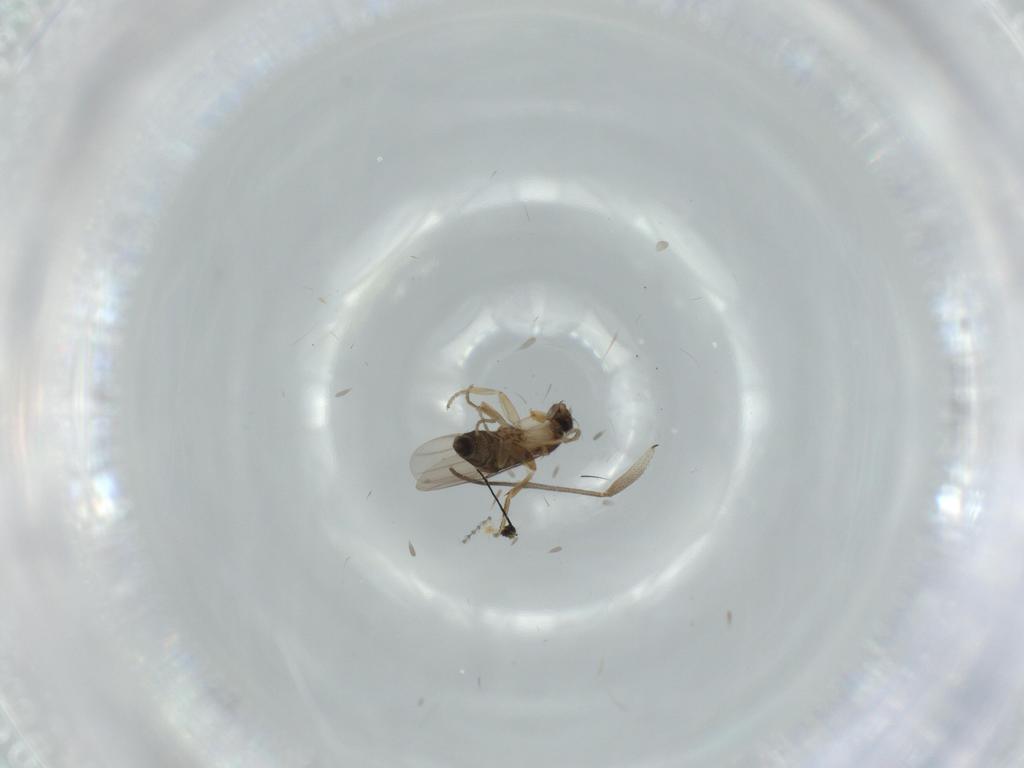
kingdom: Animalia
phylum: Arthropoda
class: Insecta
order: Diptera
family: Phoridae
